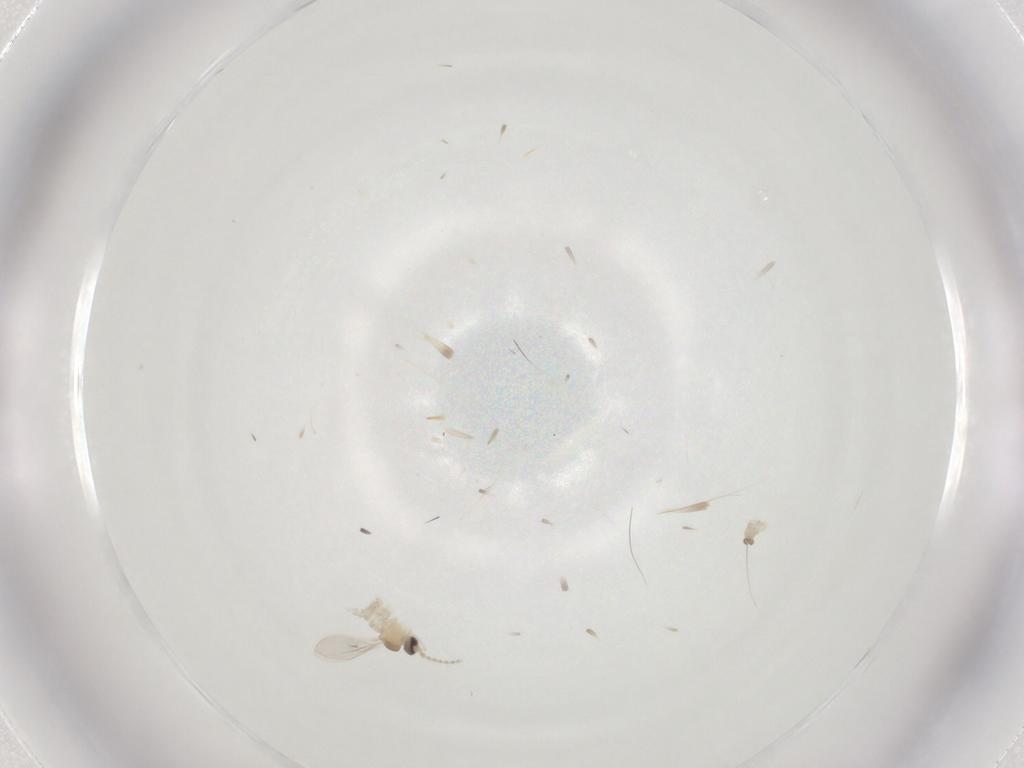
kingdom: Animalia
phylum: Arthropoda
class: Insecta
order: Diptera
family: Cecidomyiidae
